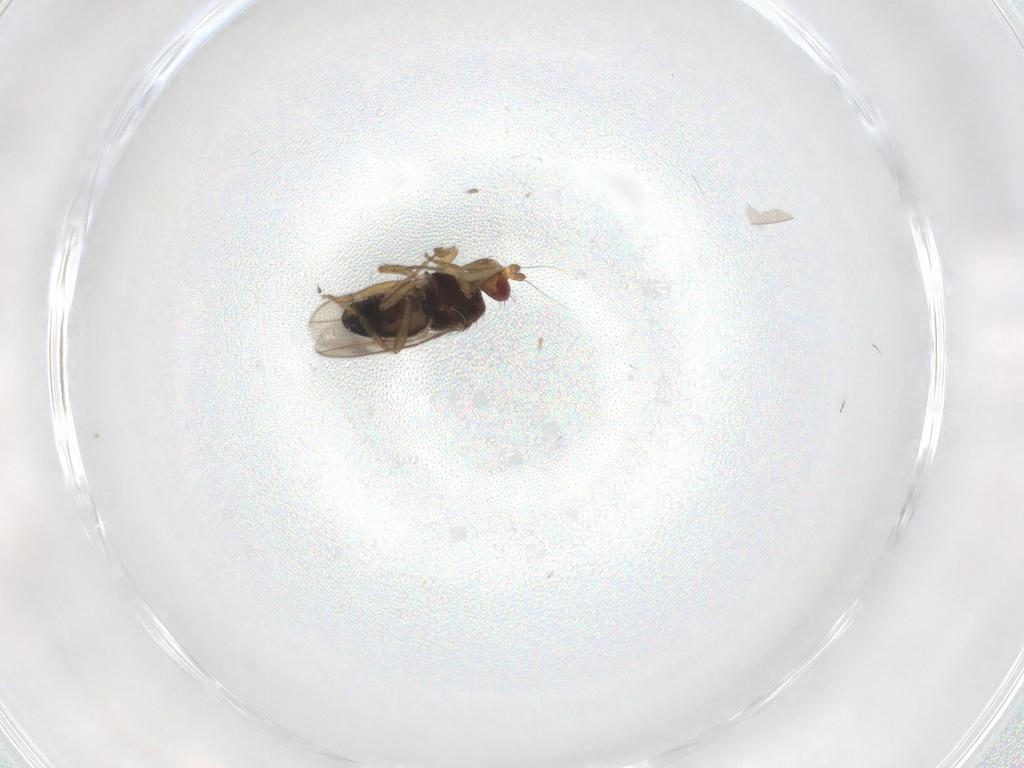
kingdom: Animalia
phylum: Arthropoda
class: Insecta
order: Diptera
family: Sphaeroceridae
